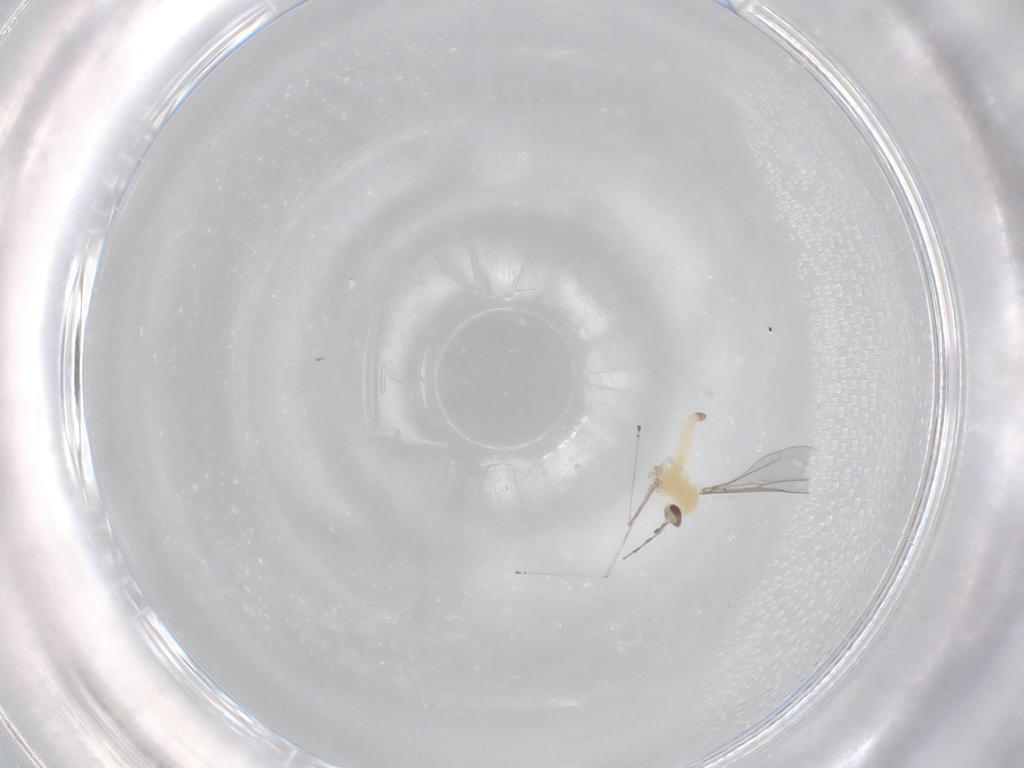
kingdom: Animalia
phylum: Arthropoda
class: Insecta
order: Diptera
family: Cecidomyiidae
